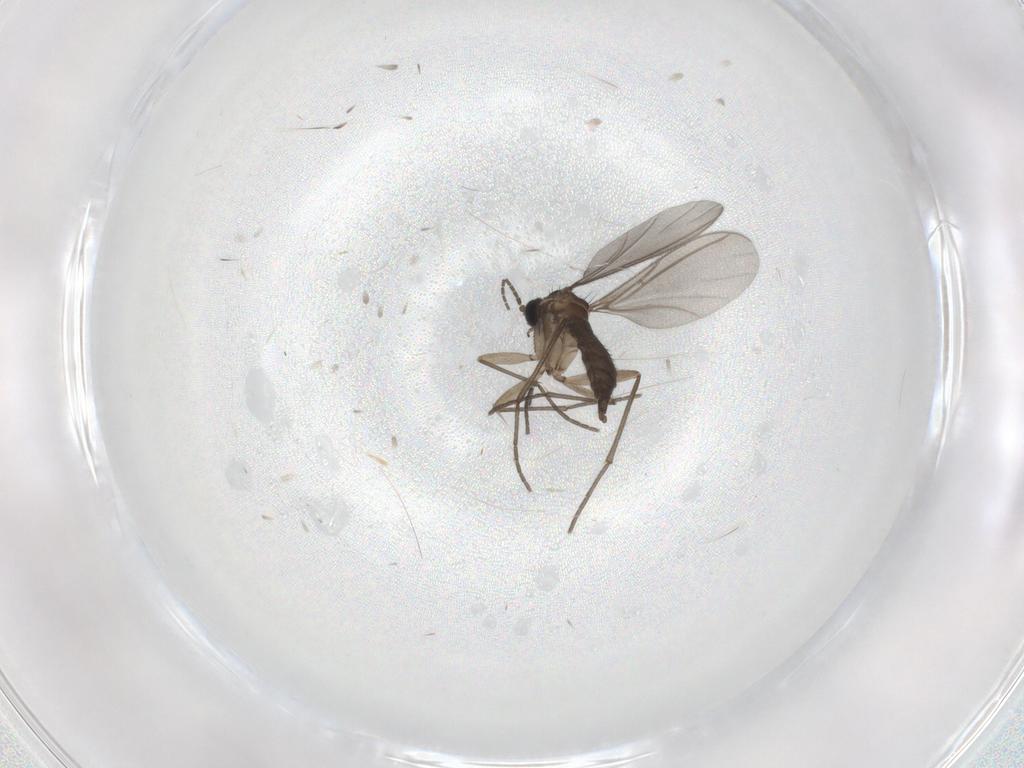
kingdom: Animalia
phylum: Arthropoda
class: Insecta
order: Diptera
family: Sciaridae
